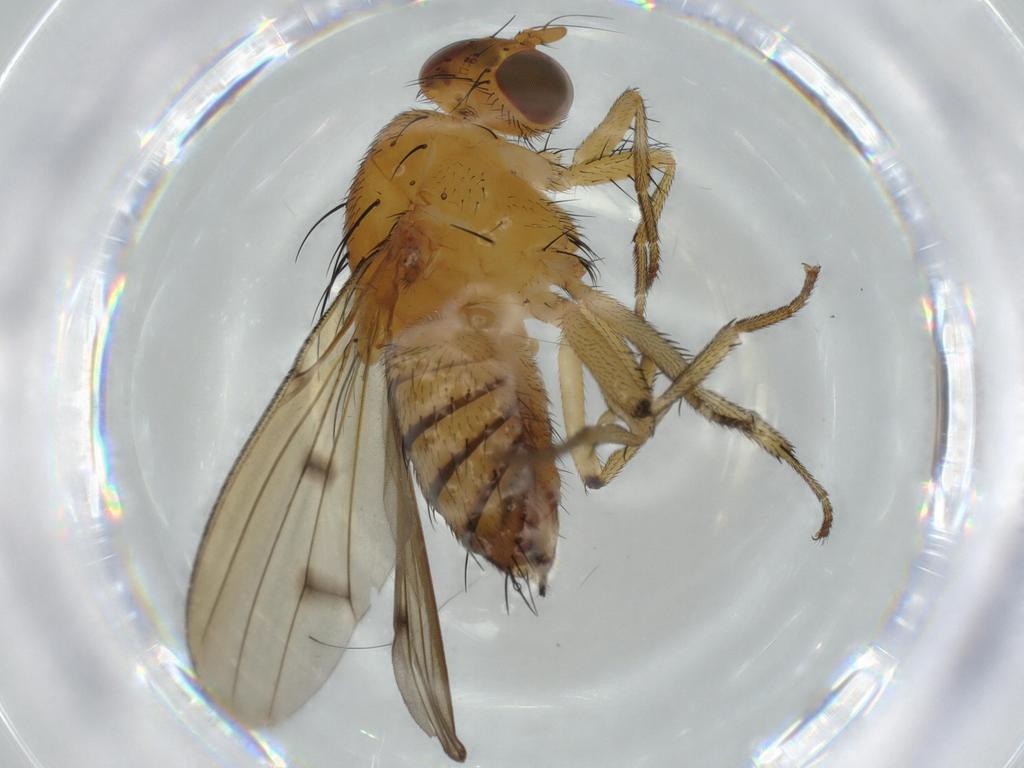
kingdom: Animalia
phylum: Arthropoda
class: Insecta
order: Diptera
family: Lauxaniidae
